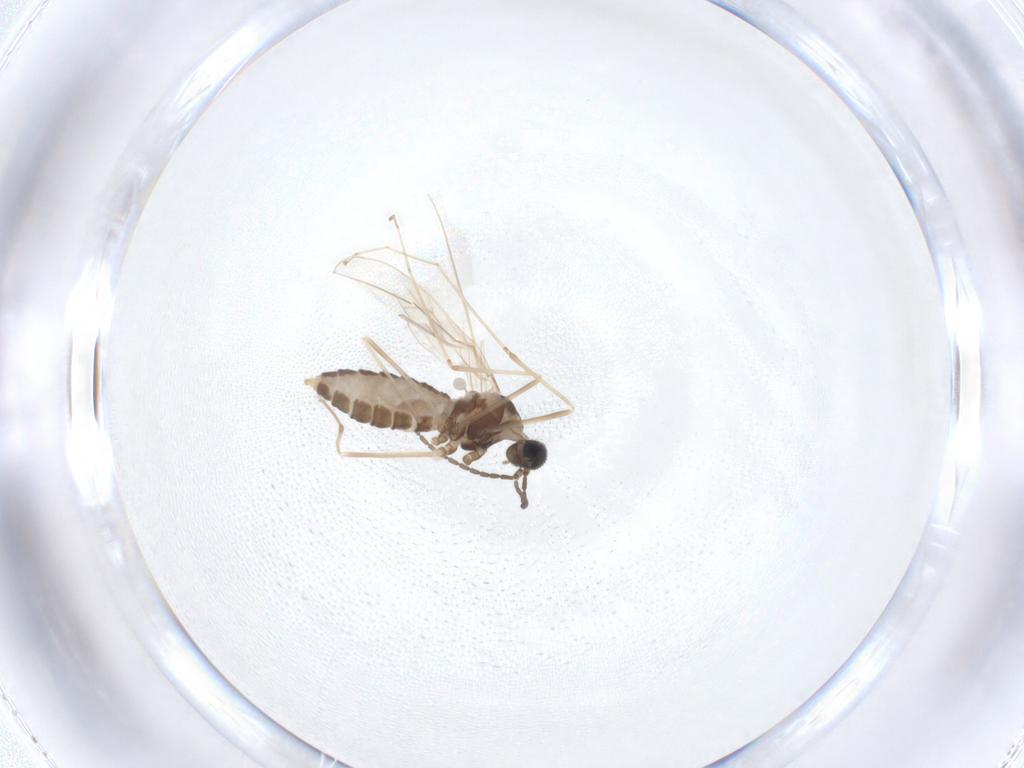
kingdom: Animalia
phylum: Arthropoda
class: Insecta
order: Diptera
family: Cecidomyiidae
